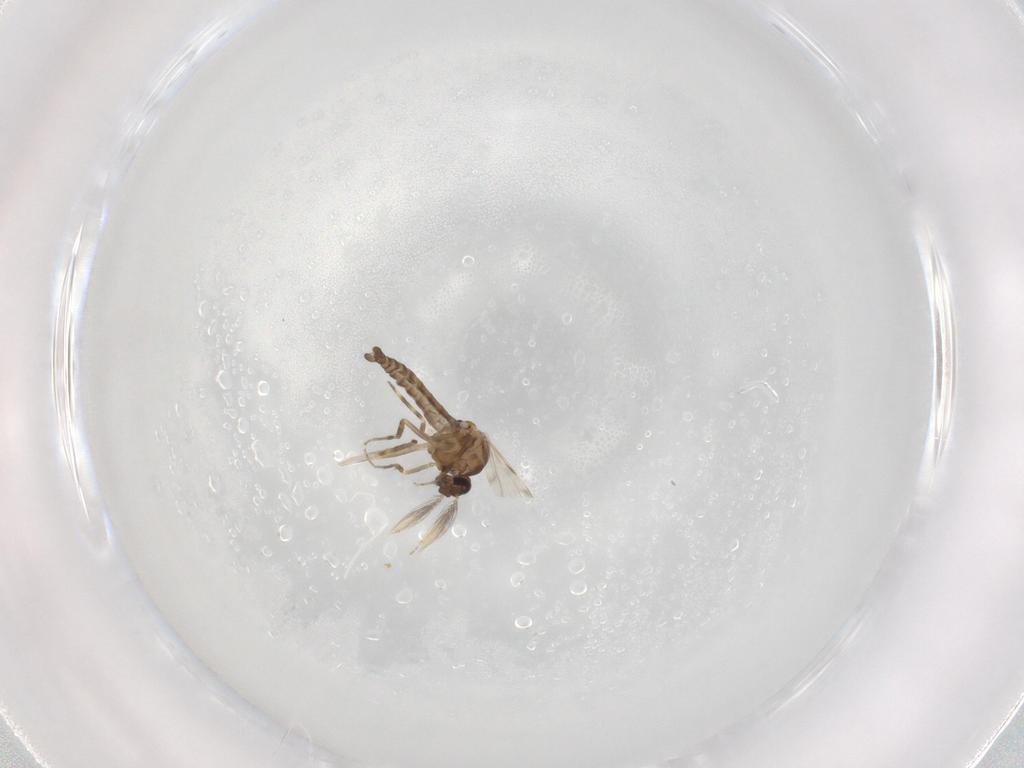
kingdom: Animalia
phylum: Arthropoda
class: Insecta
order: Diptera
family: Ceratopogonidae
